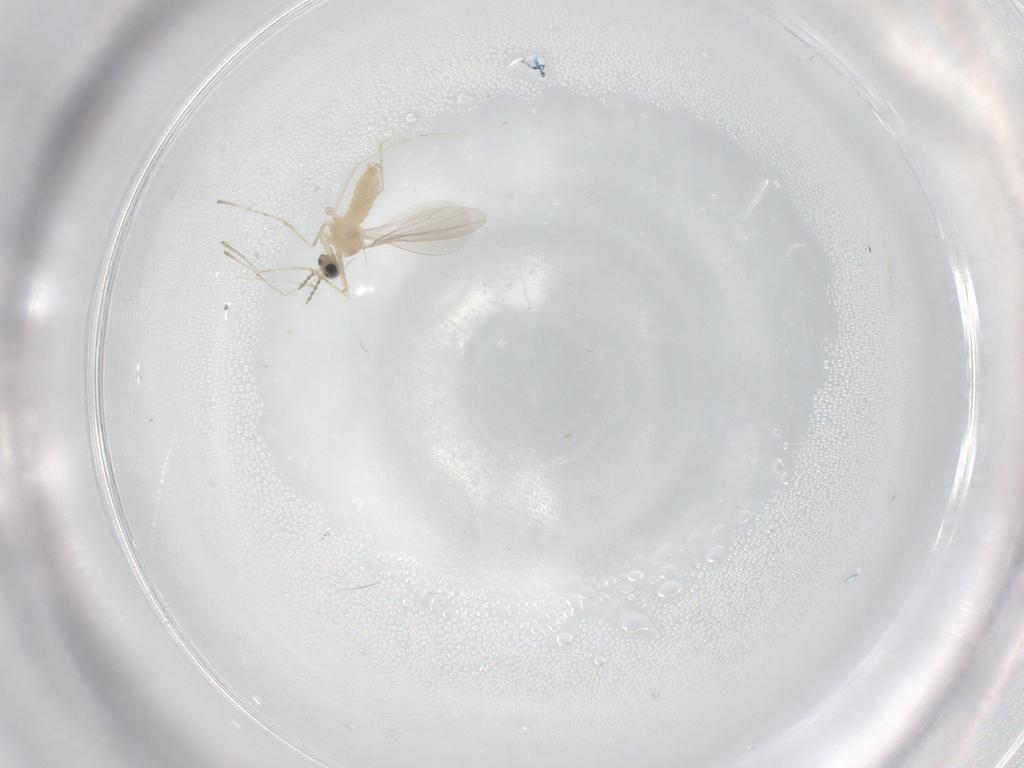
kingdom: Animalia
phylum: Arthropoda
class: Insecta
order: Diptera
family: Cecidomyiidae
